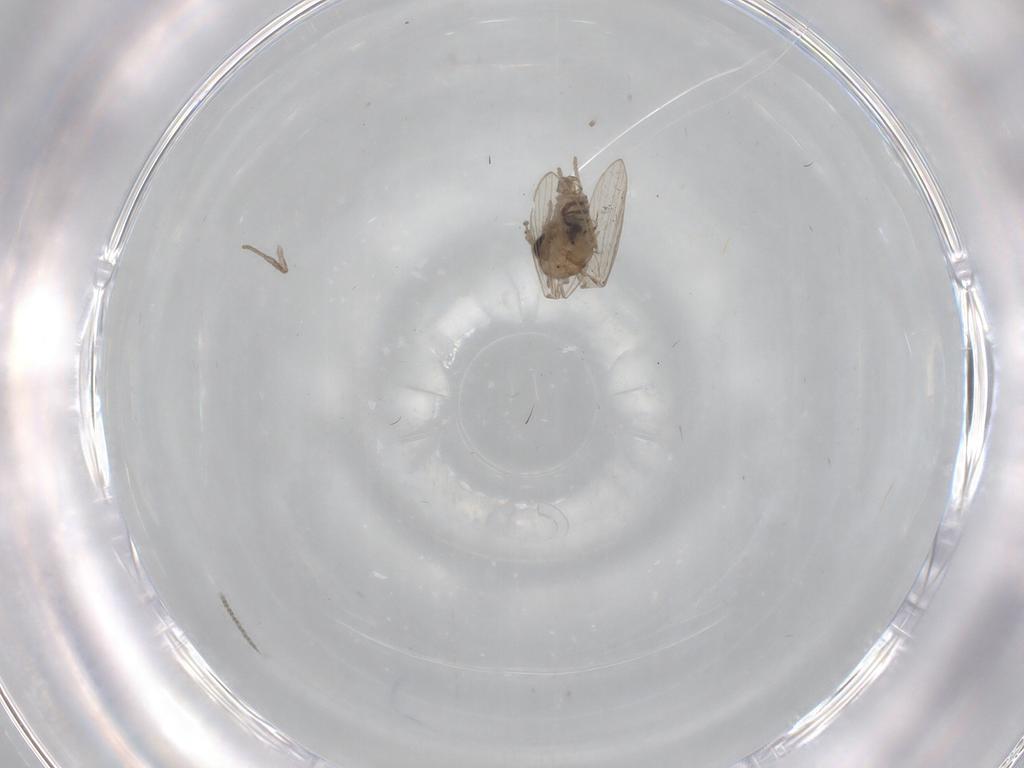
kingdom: Animalia
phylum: Arthropoda
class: Insecta
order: Diptera
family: Psychodidae
